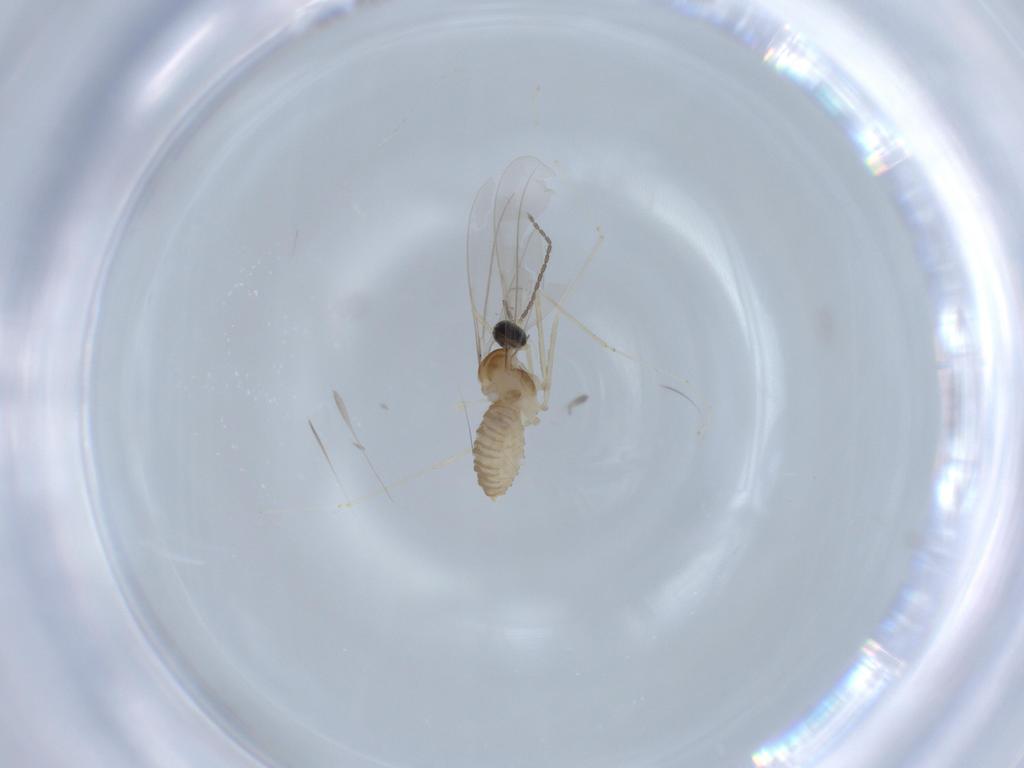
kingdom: Animalia
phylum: Arthropoda
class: Insecta
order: Diptera
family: Cecidomyiidae
